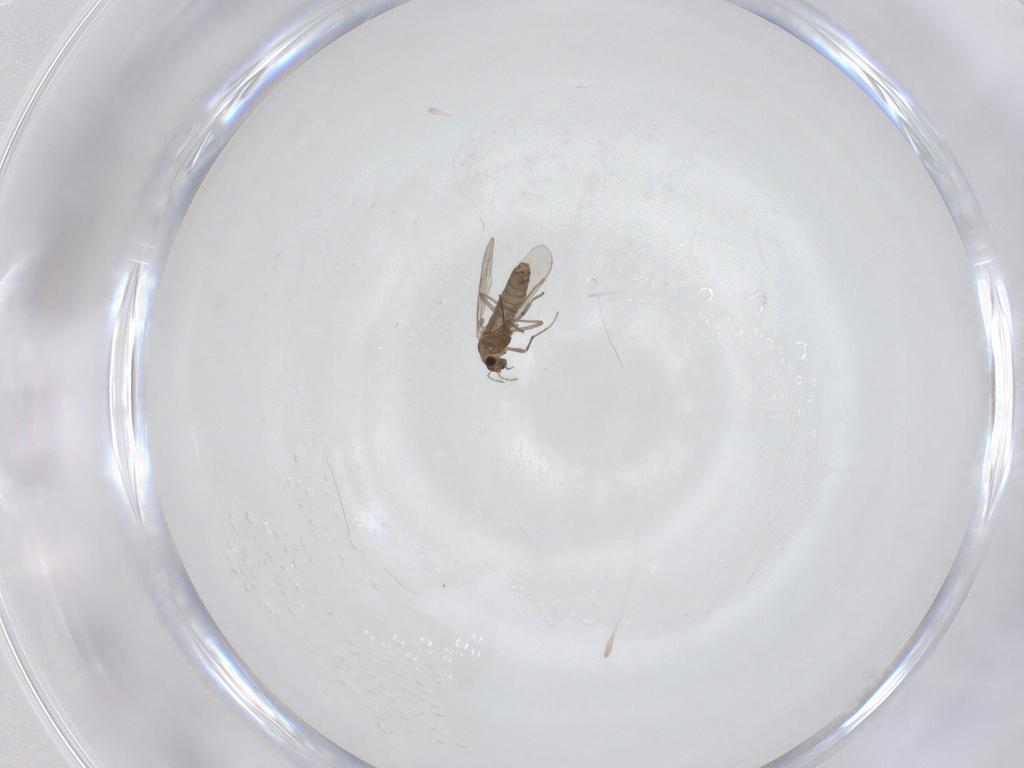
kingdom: Animalia
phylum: Arthropoda
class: Insecta
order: Diptera
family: Chironomidae
